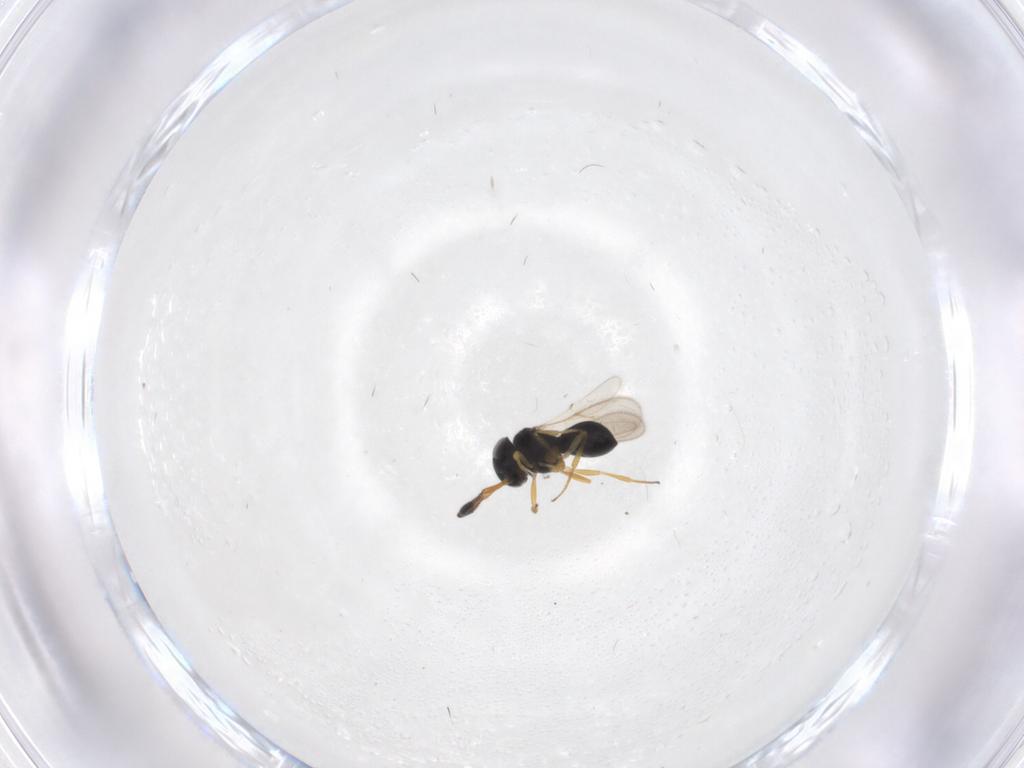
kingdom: Animalia
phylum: Arthropoda
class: Insecta
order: Hymenoptera
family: Scelionidae
